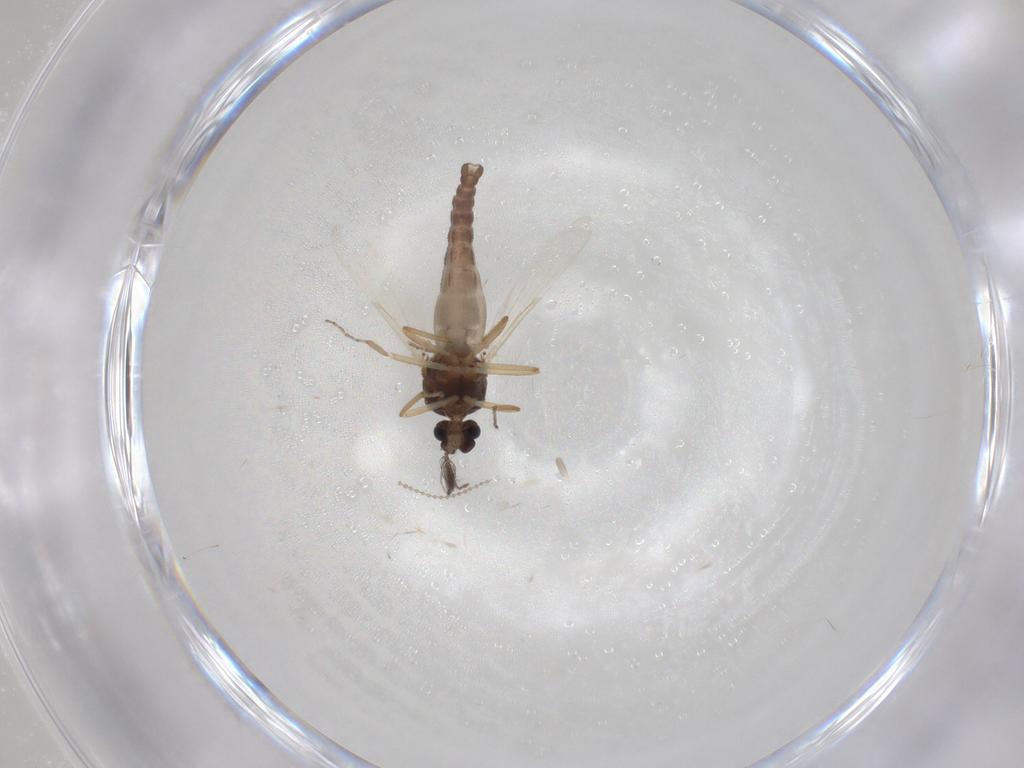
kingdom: Animalia
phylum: Arthropoda
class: Insecta
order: Diptera
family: Ceratopogonidae
